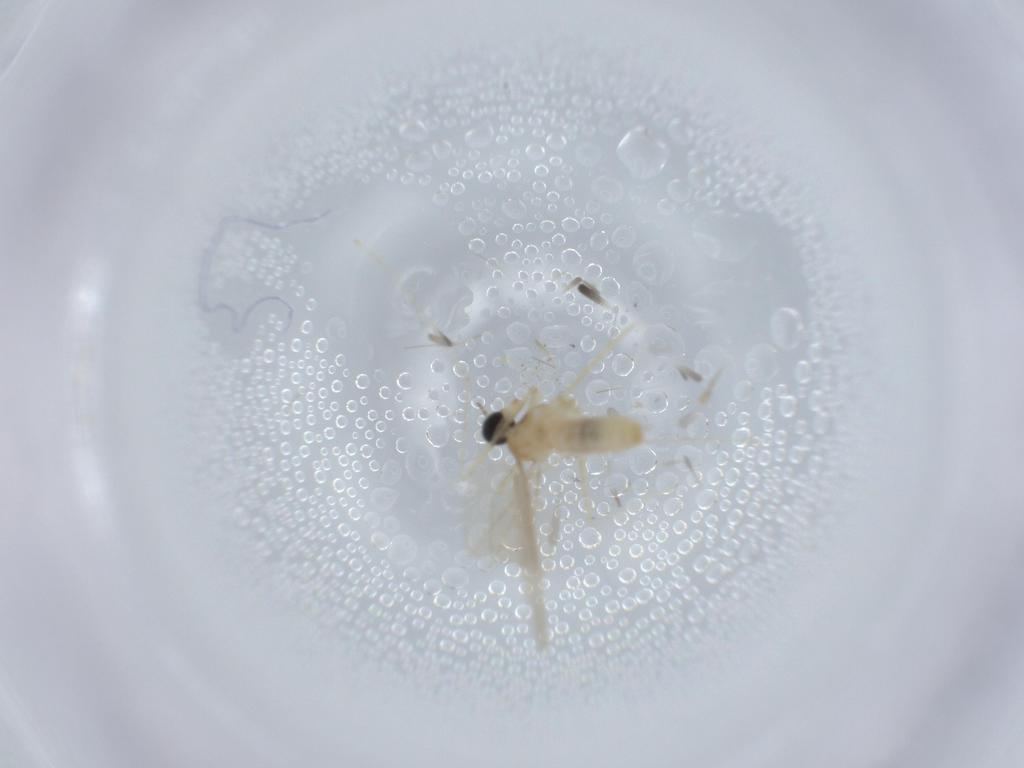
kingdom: Animalia
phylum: Arthropoda
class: Insecta
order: Diptera
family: Cecidomyiidae
